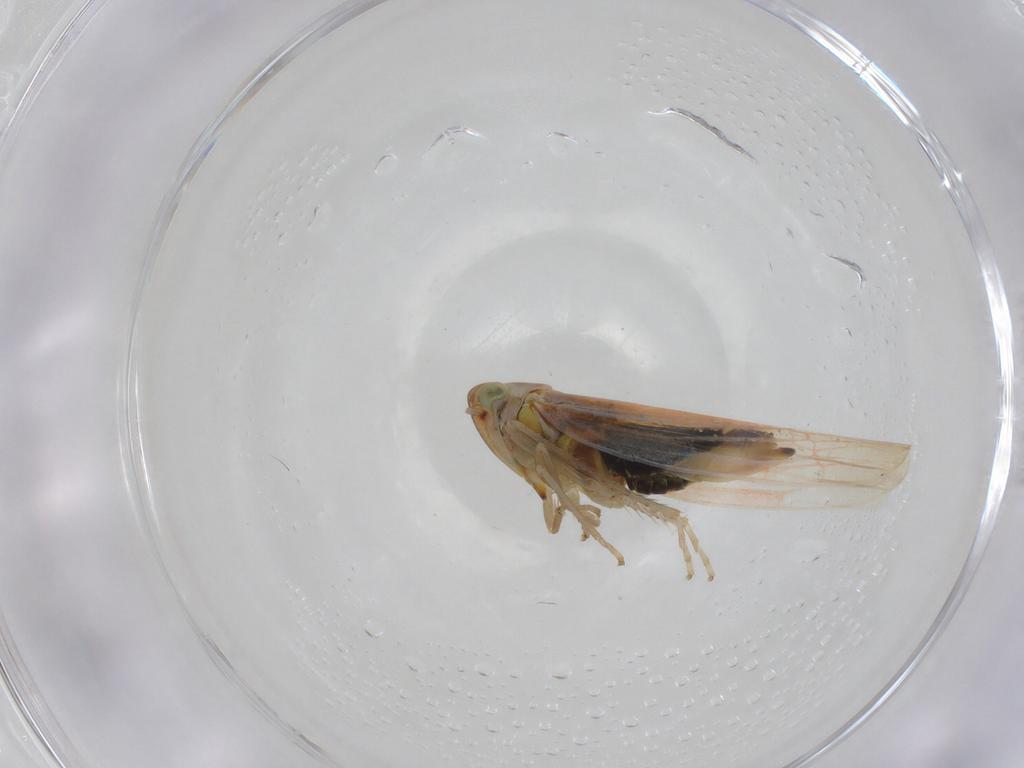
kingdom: Animalia
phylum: Arthropoda
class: Insecta
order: Hemiptera
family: Cicadellidae
